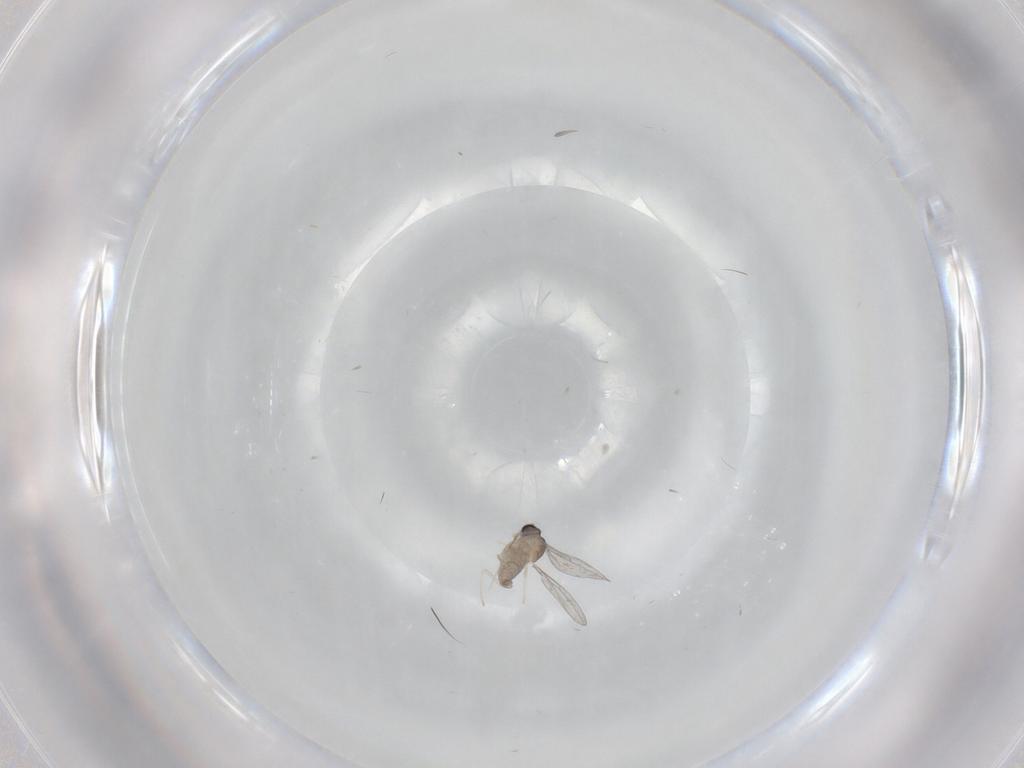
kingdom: Animalia
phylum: Arthropoda
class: Insecta
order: Diptera
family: Cecidomyiidae
